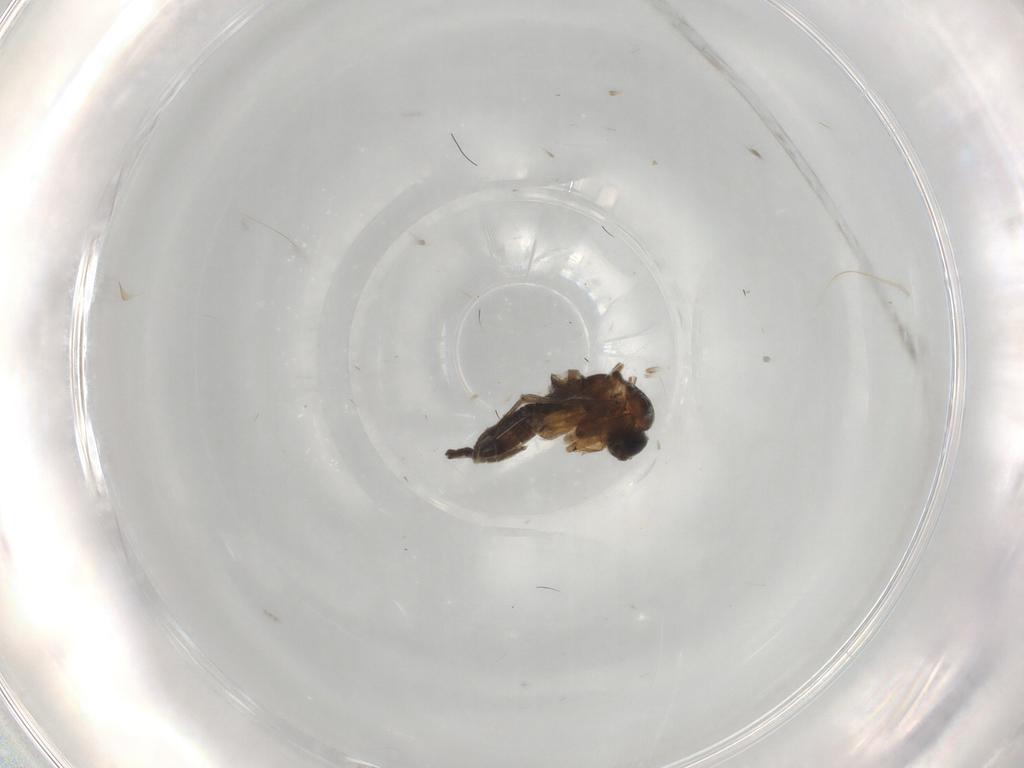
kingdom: Animalia
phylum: Arthropoda
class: Insecta
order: Diptera
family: Sciaridae
